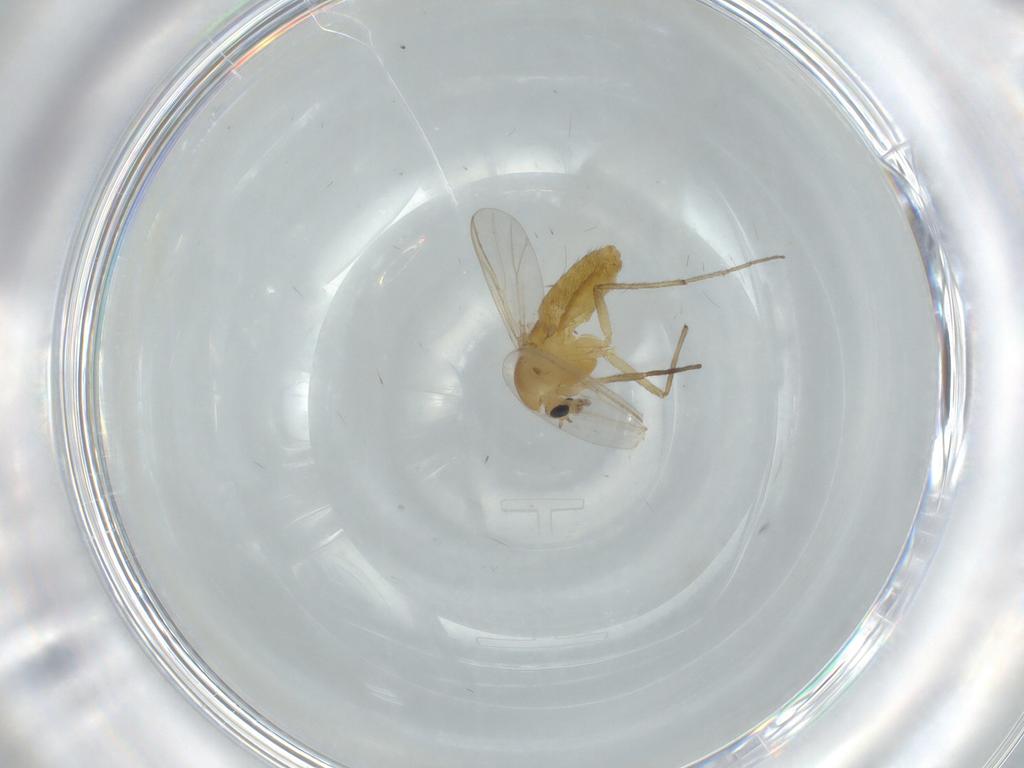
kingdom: Animalia
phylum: Arthropoda
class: Insecta
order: Diptera
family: Chironomidae
